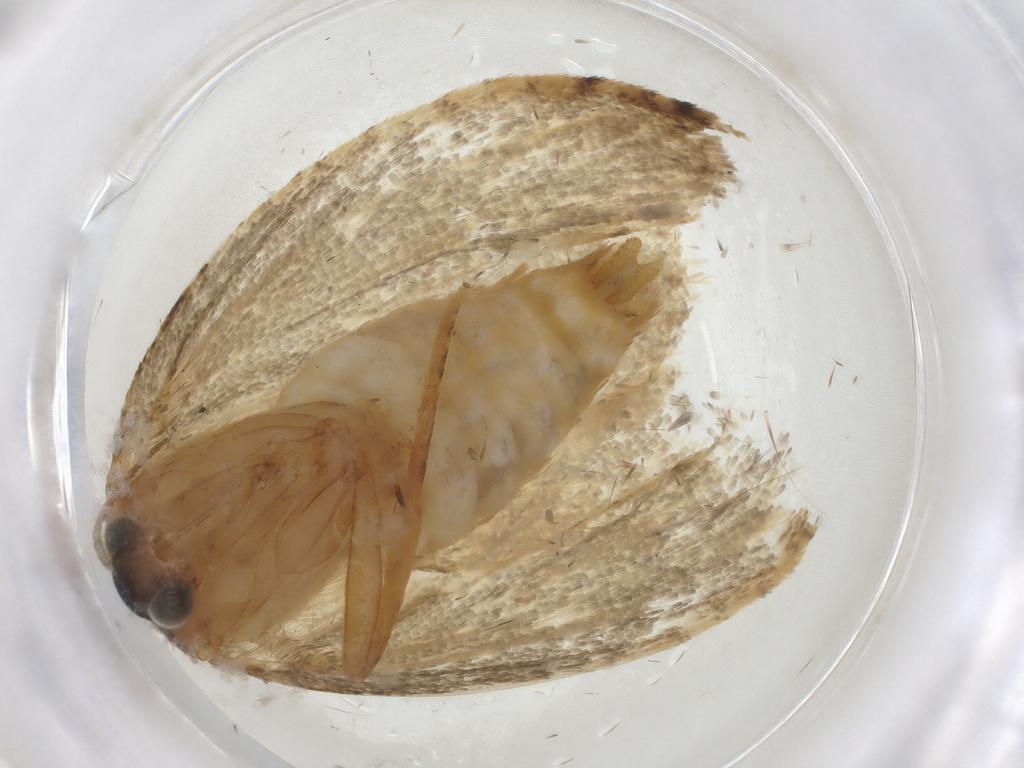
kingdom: Animalia
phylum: Arthropoda
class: Insecta
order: Lepidoptera
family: Tortricidae
